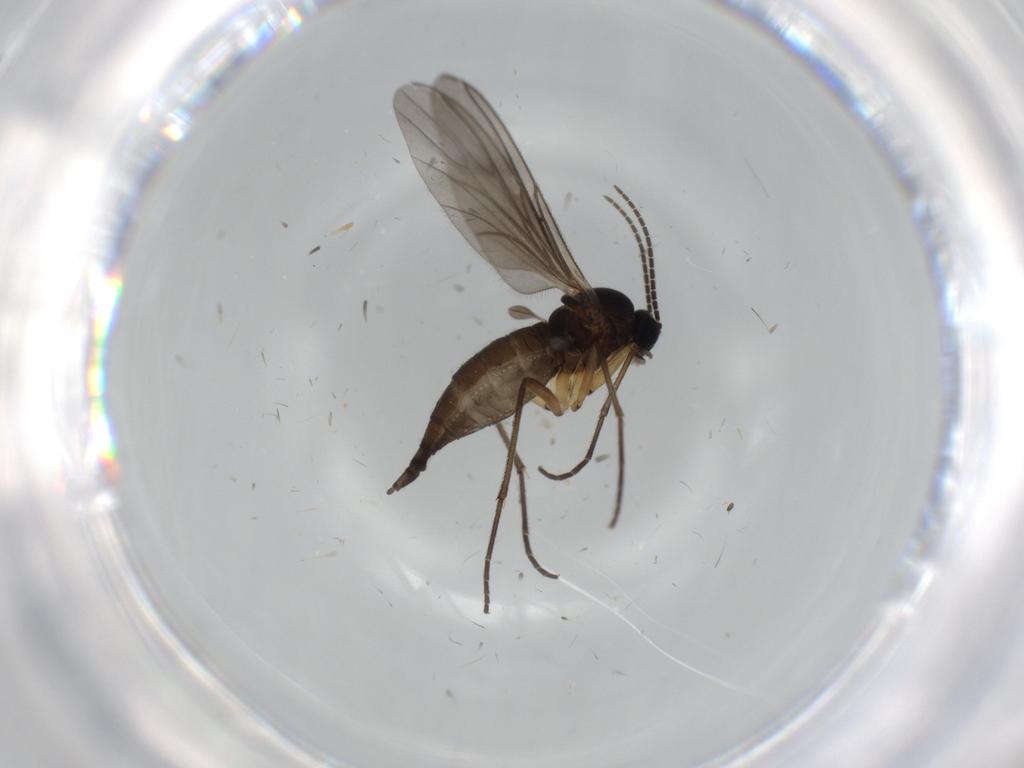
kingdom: Animalia
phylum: Arthropoda
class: Insecta
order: Diptera
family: Sciaridae
